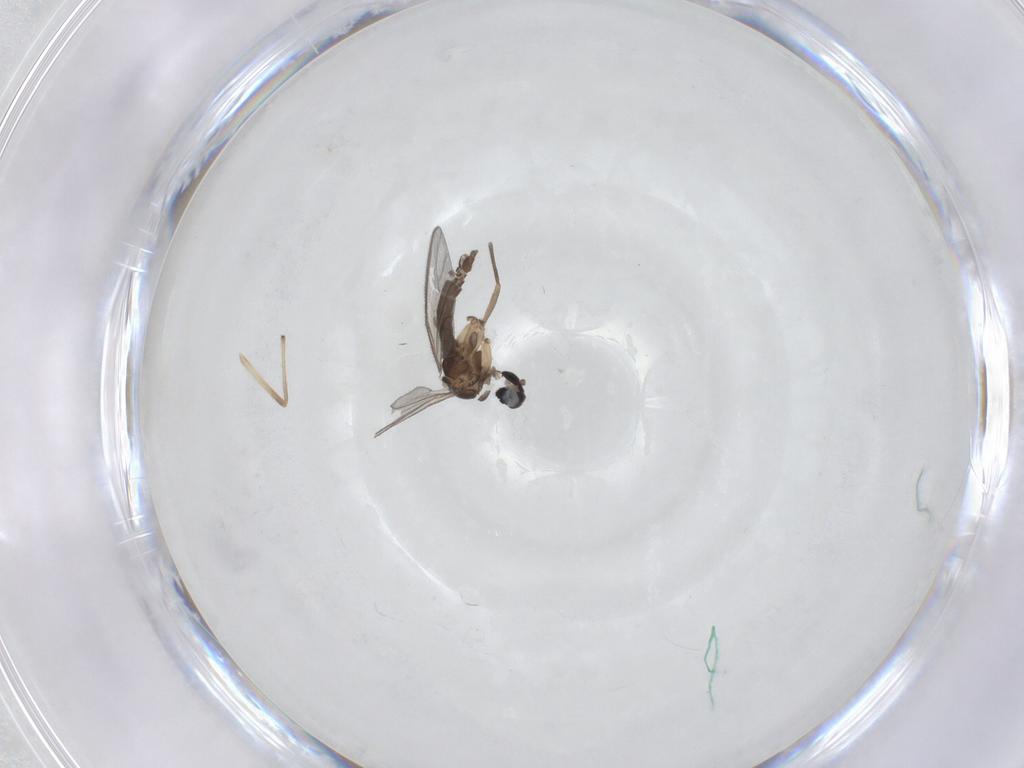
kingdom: Animalia
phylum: Arthropoda
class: Insecta
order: Diptera
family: Sciaridae
